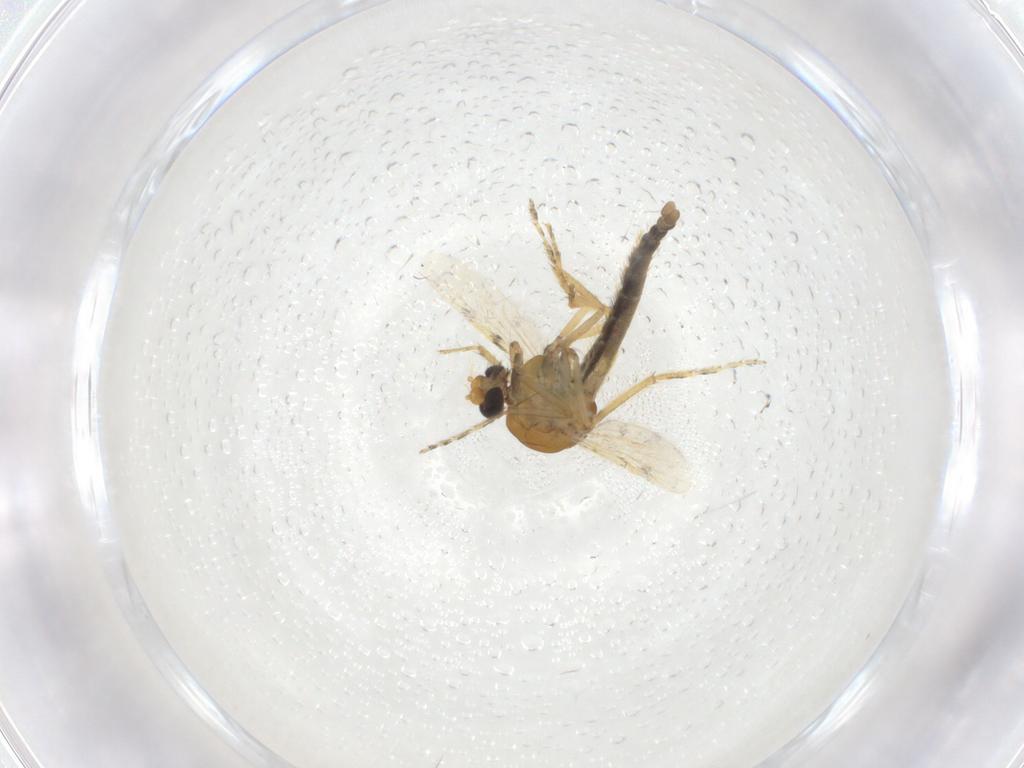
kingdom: Animalia
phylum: Arthropoda
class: Insecta
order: Diptera
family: Ceratopogonidae
